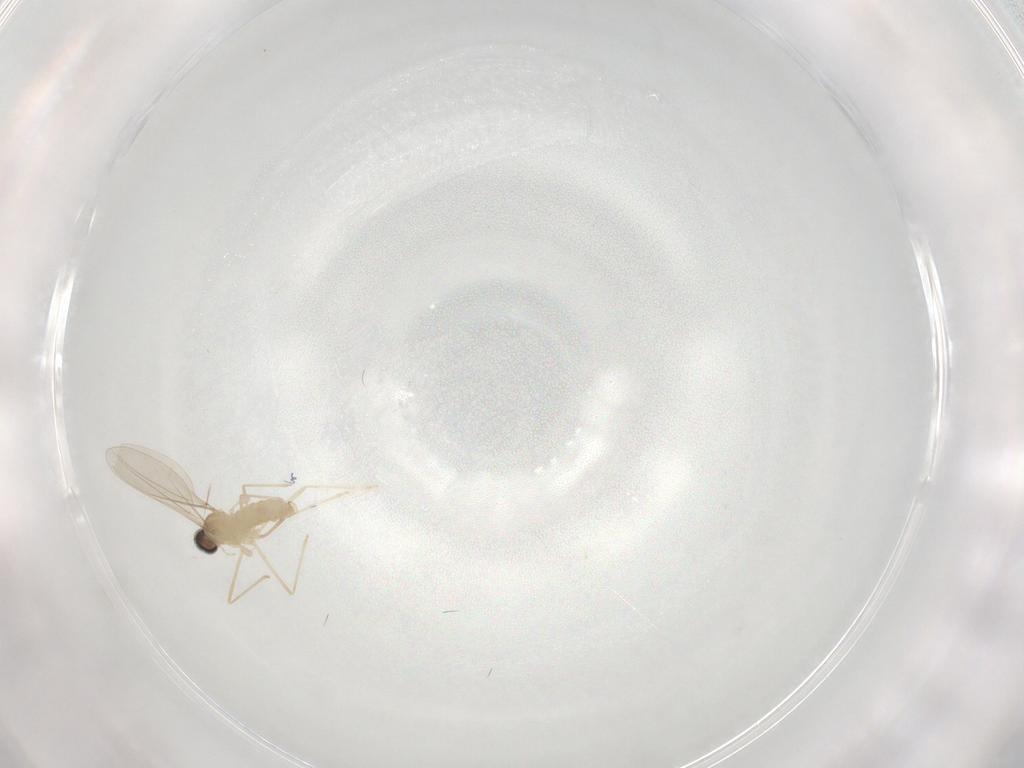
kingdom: Animalia
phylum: Arthropoda
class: Insecta
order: Diptera
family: Cecidomyiidae
